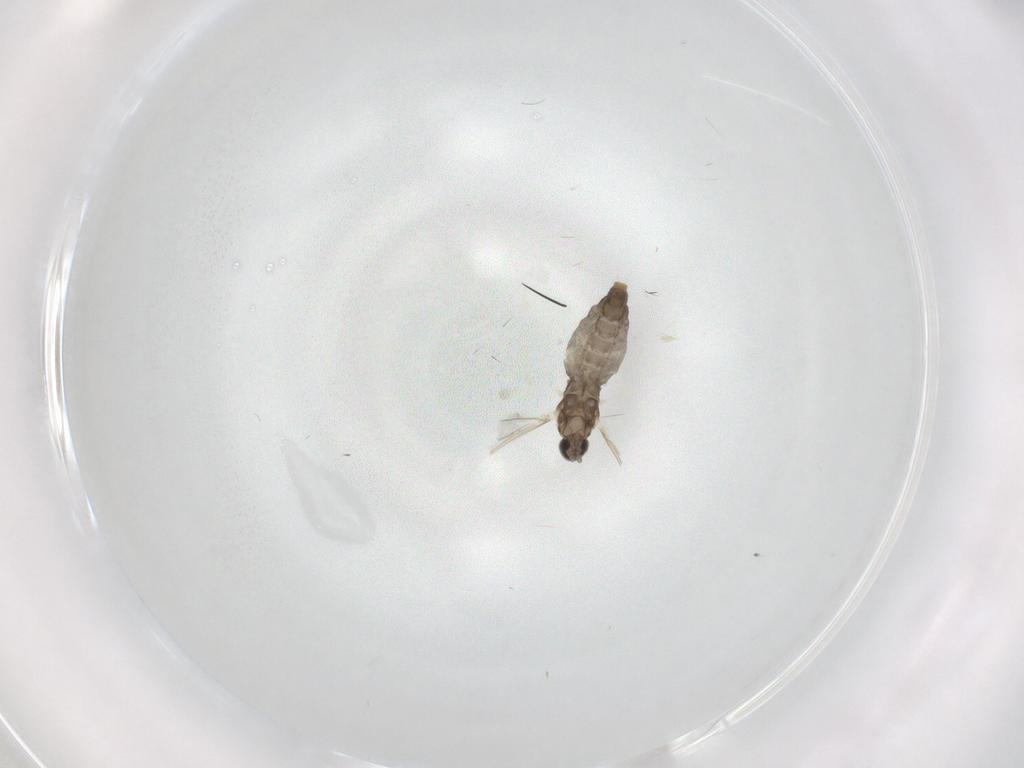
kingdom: Animalia
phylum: Arthropoda
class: Insecta
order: Diptera
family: Cecidomyiidae
